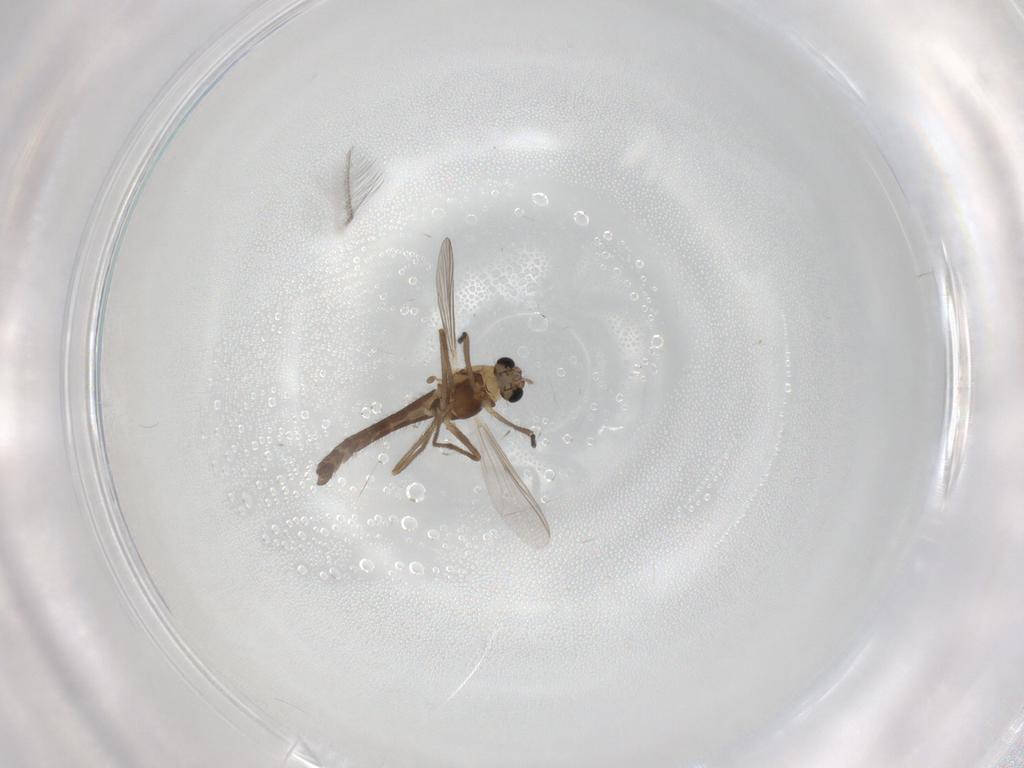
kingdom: Animalia
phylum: Arthropoda
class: Insecta
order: Diptera
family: Chironomidae
